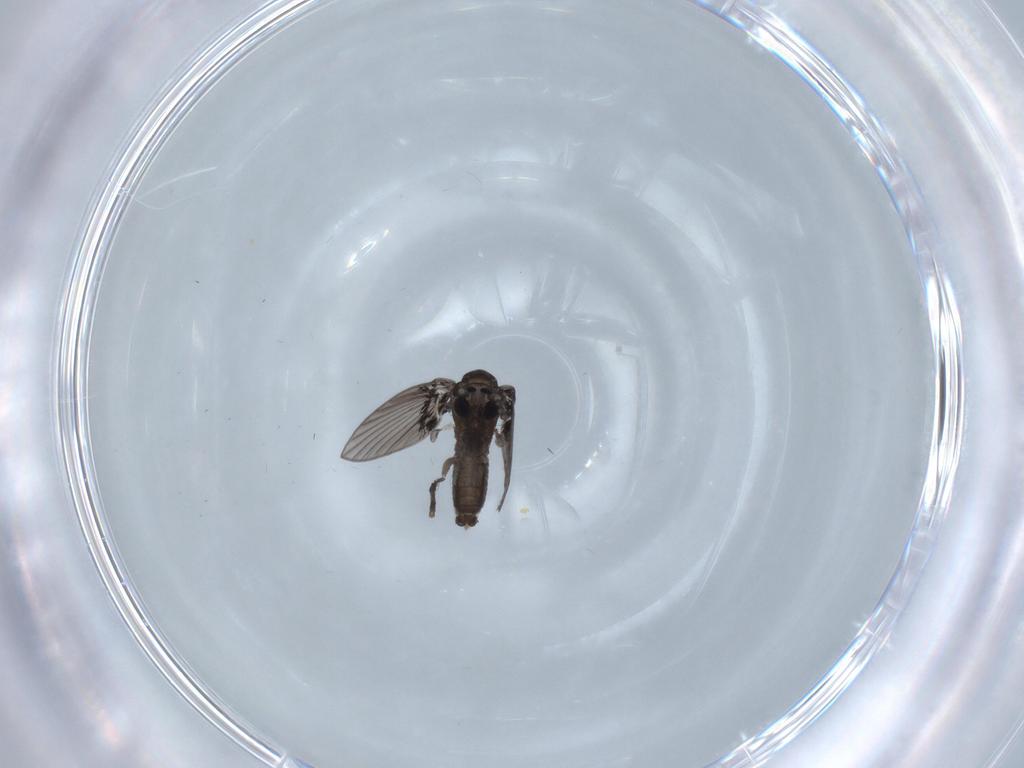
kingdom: Animalia
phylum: Arthropoda
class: Insecta
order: Diptera
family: Psychodidae
